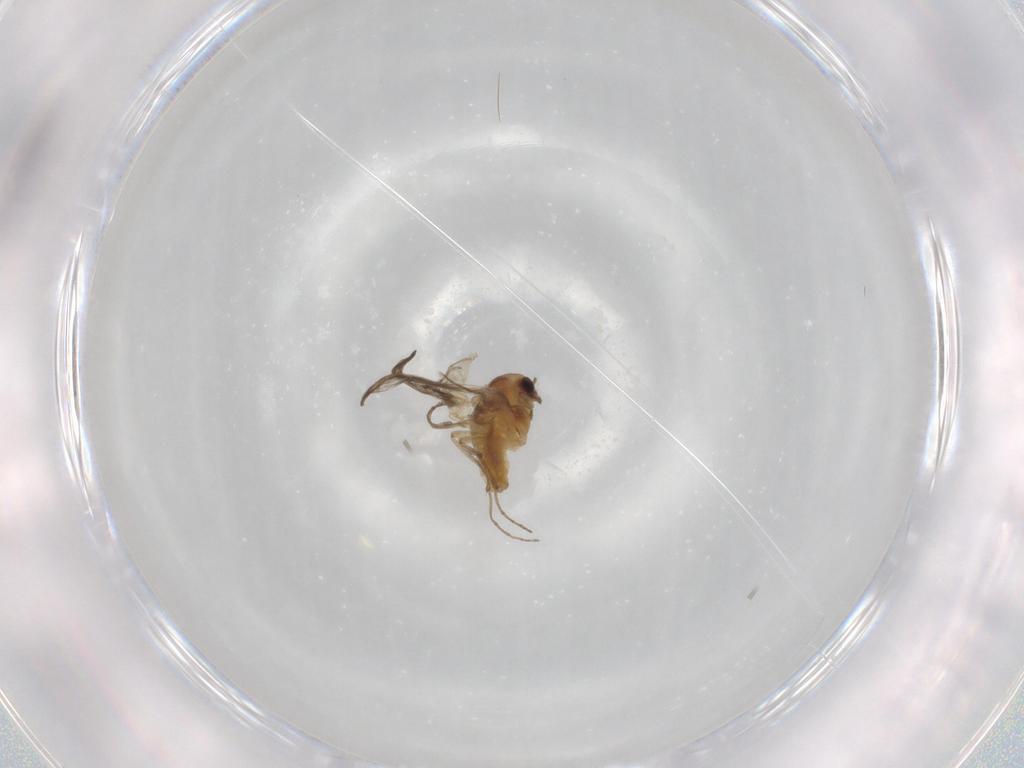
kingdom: Animalia
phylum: Arthropoda
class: Insecta
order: Diptera
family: Chironomidae
